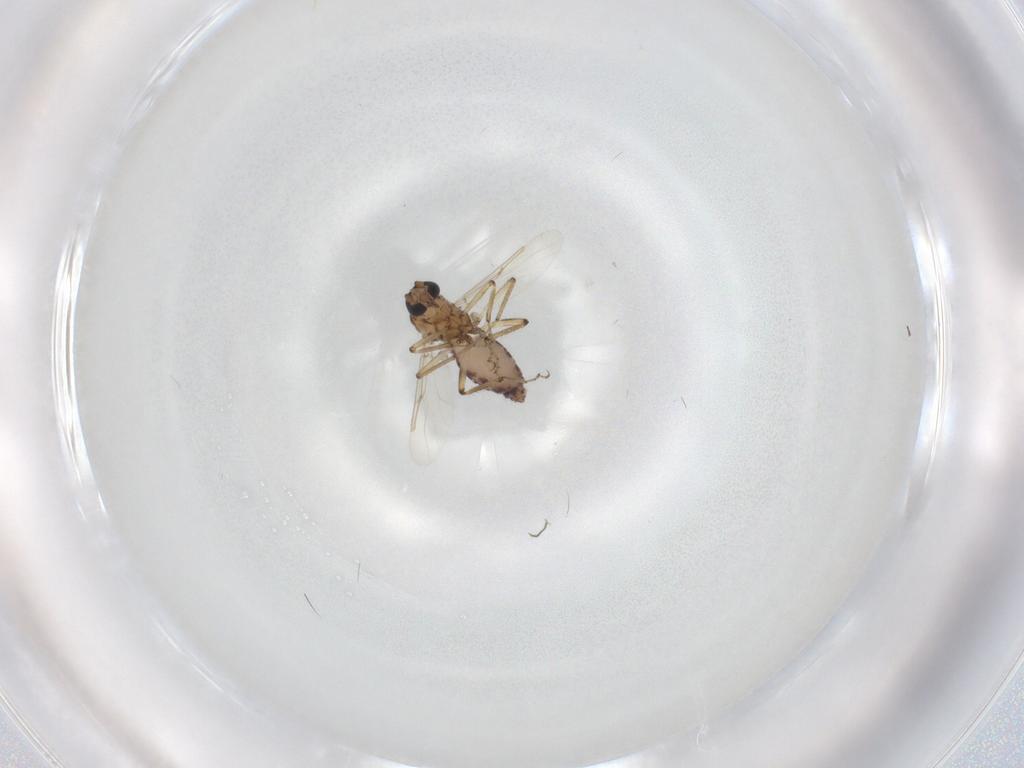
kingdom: Animalia
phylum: Arthropoda
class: Insecta
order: Diptera
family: Ceratopogonidae
